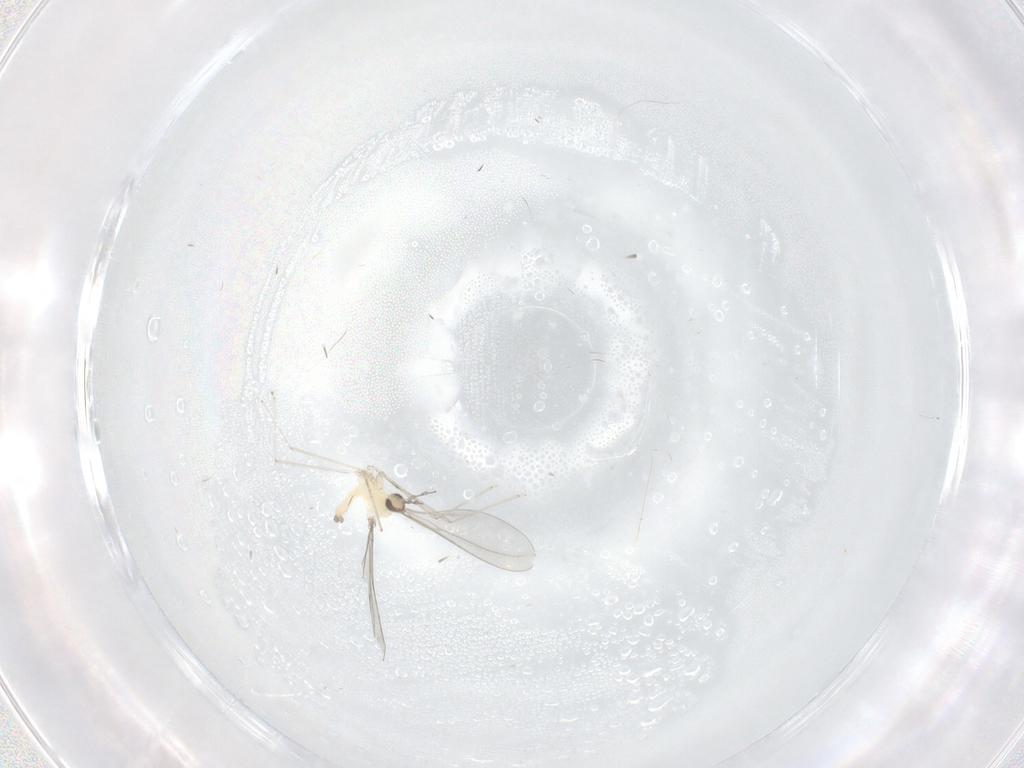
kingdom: Animalia
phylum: Arthropoda
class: Insecta
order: Diptera
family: Cecidomyiidae
